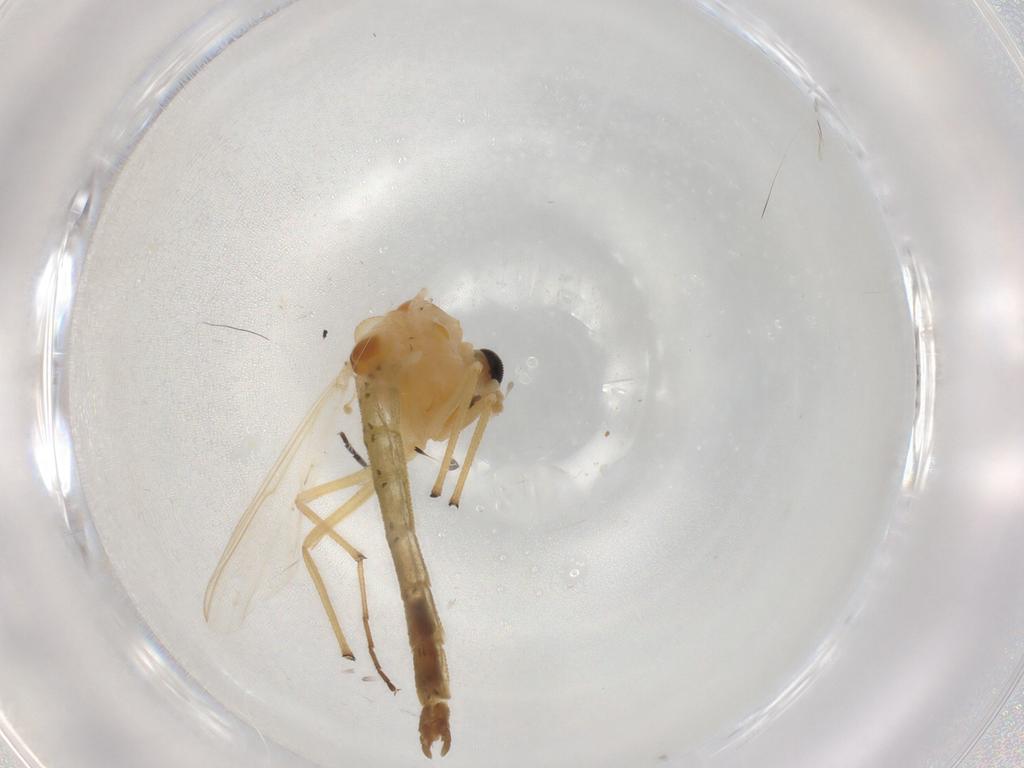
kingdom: Animalia
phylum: Arthropoda
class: Insecta
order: Diptera
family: Chironomidae
